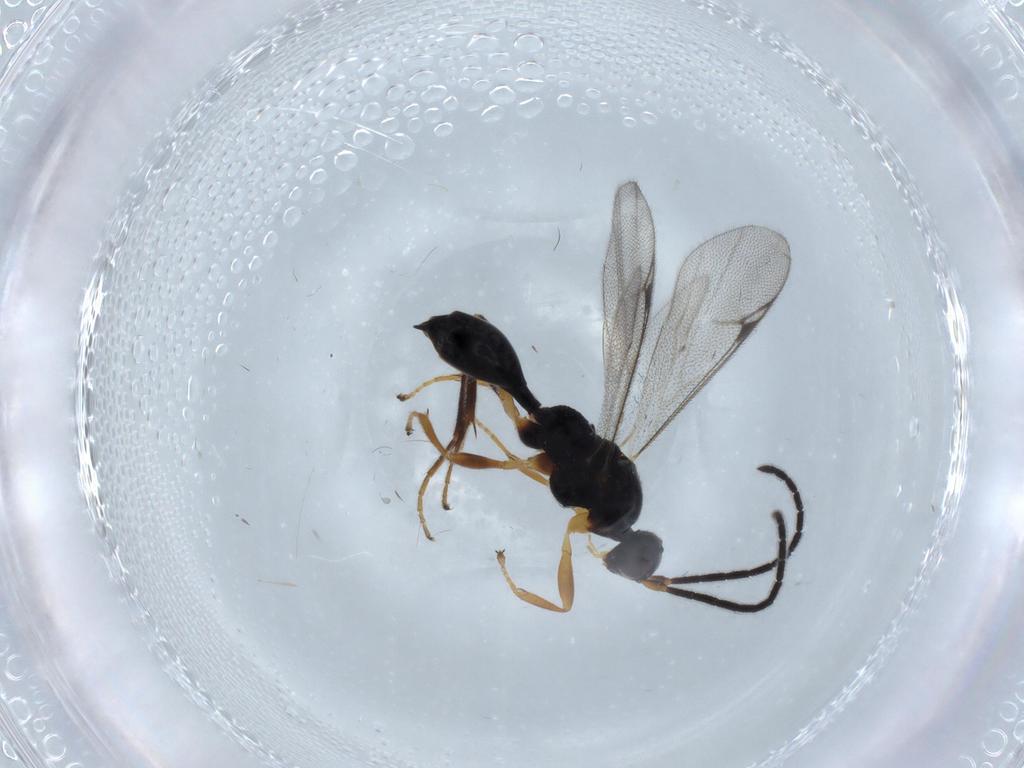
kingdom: Animalia
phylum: Arthropoda
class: Insecta
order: Hymenoptera
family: Proctotrupidae
